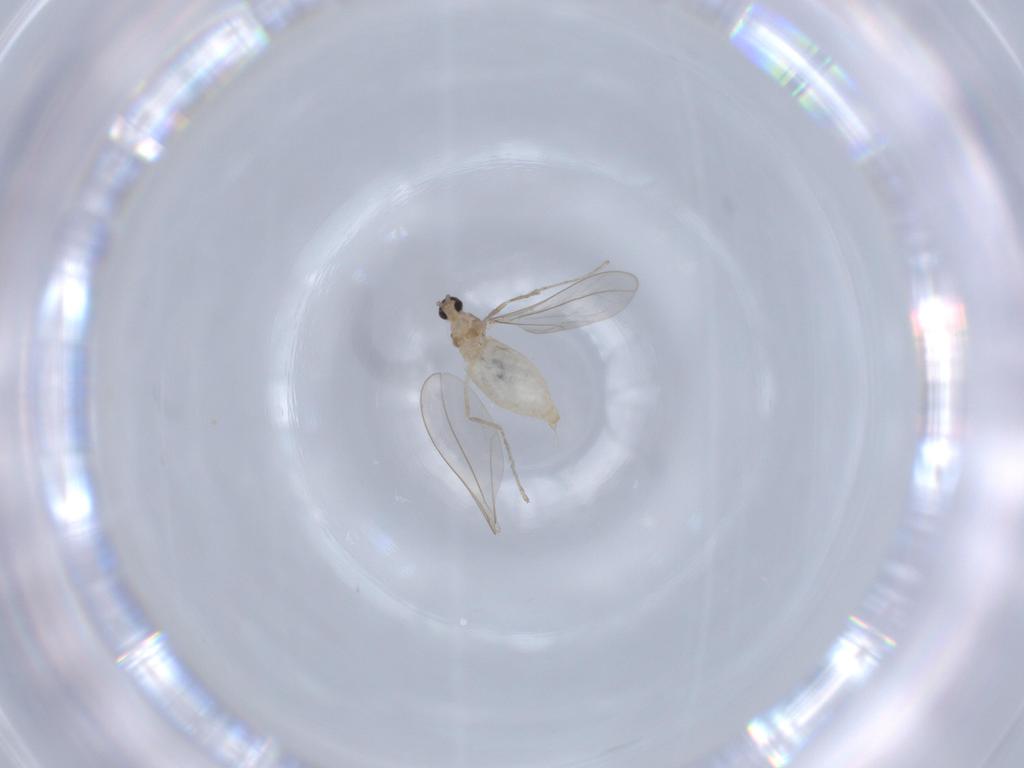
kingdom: Animalia
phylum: Arthropoda
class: Insecta
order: Diptera
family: Cecidomyiidae
